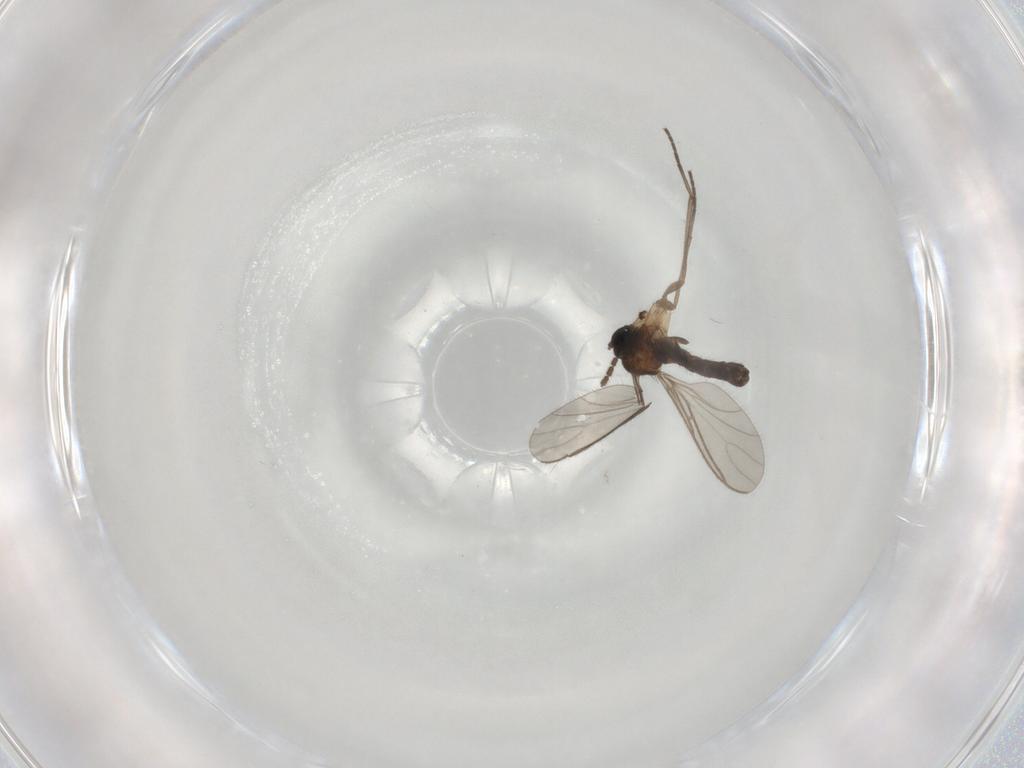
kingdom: Animalia
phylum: Arthropoda
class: Insecta
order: Diptera
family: Sciaridae
